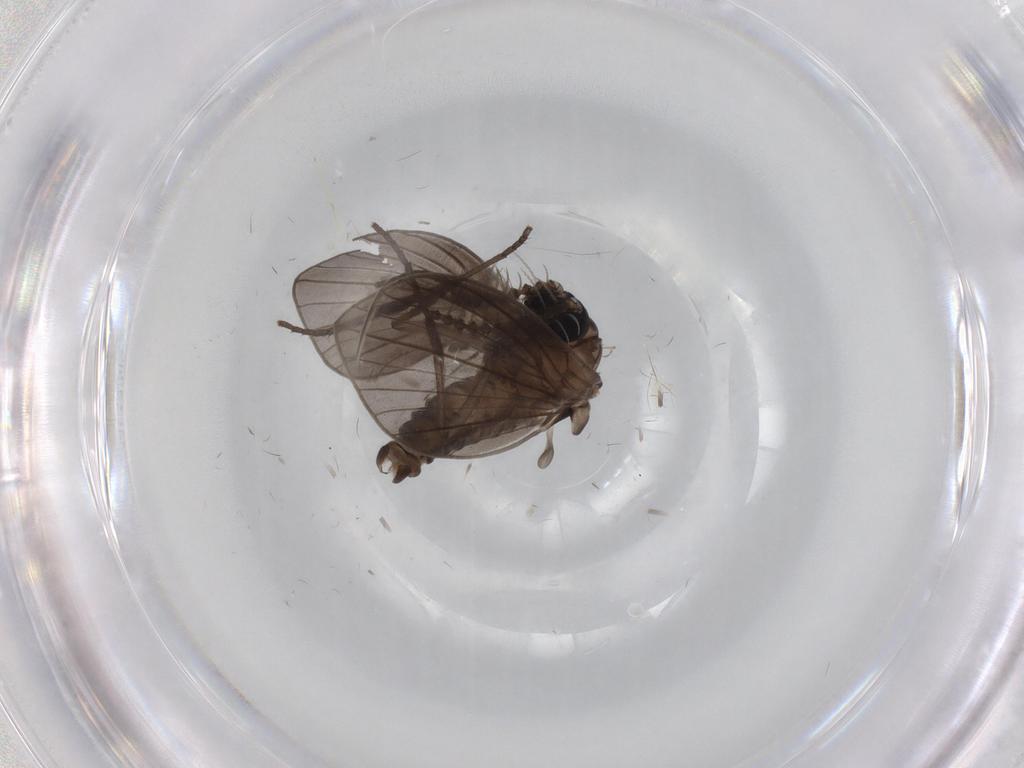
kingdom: Animalia
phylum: Arthropoda
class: Insecta
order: Diptera
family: Psychodidae
